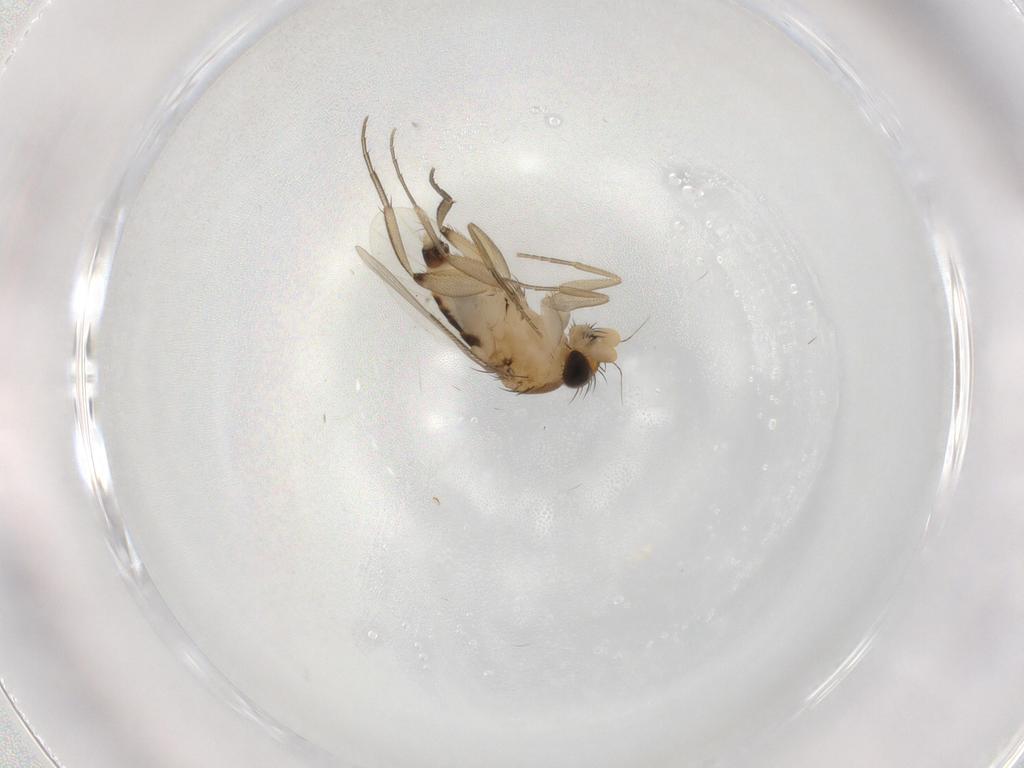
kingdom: Animalia
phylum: Arthropoda
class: Insecta
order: Diptera
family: Phoridae
